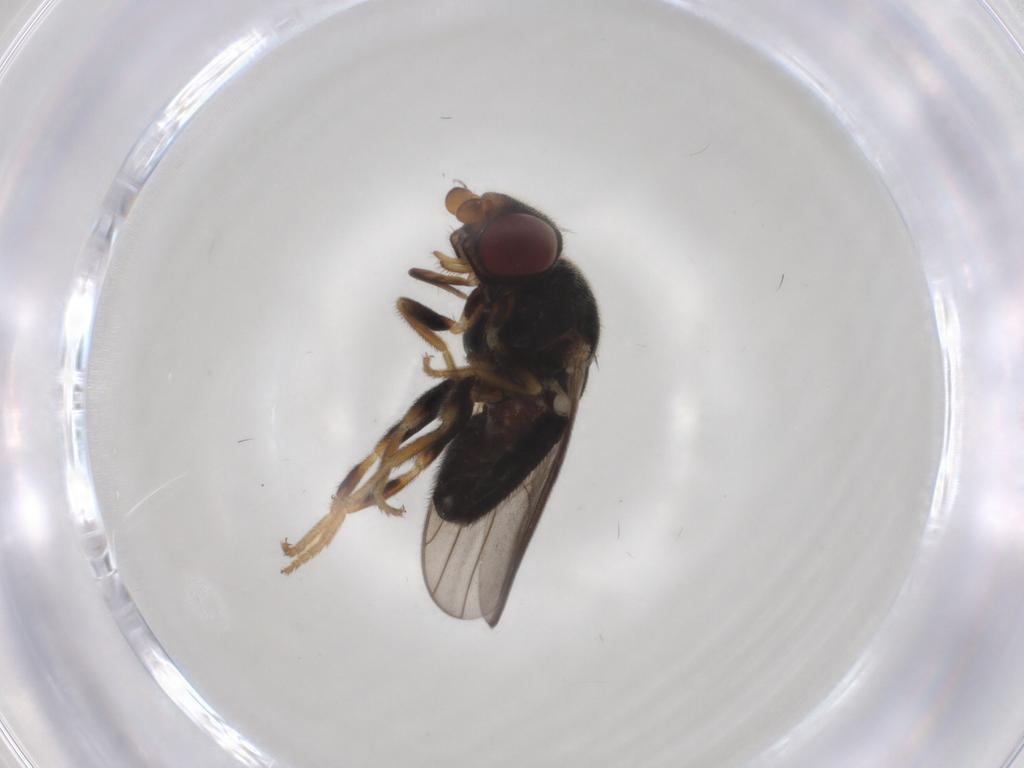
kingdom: Animalia
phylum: Arthropoda
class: Insecta
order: Diptera
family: Chloropidae
